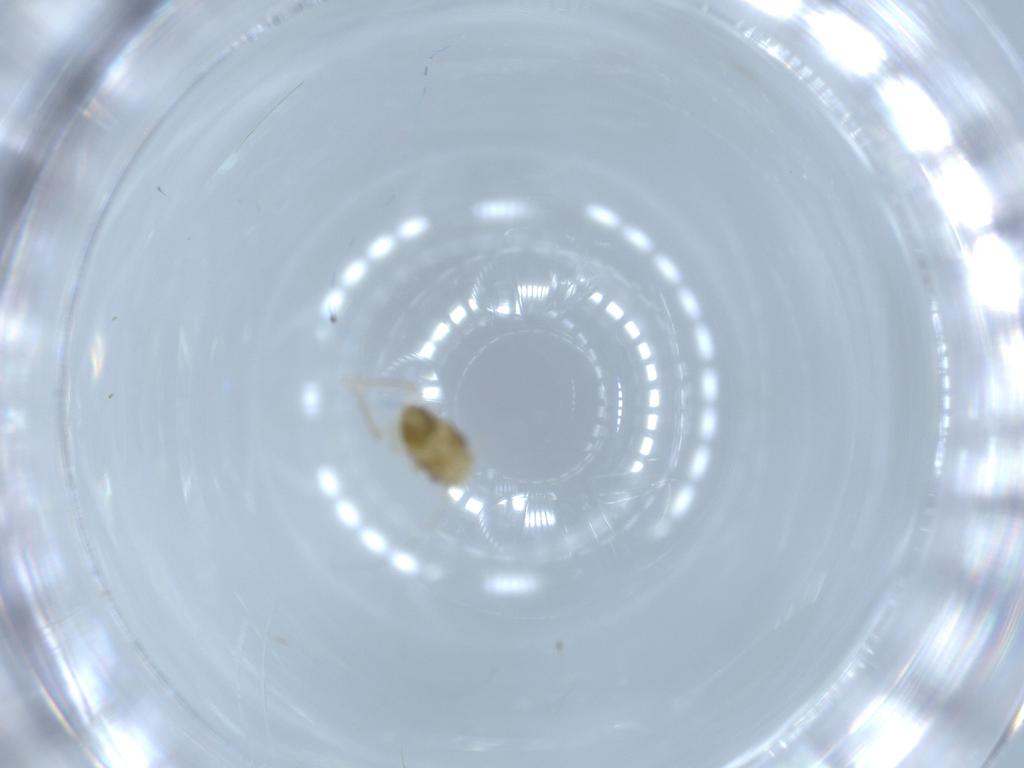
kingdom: Animalia
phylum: Arthropoda
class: Insecta
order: Hemiptera
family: Cicadellidae
